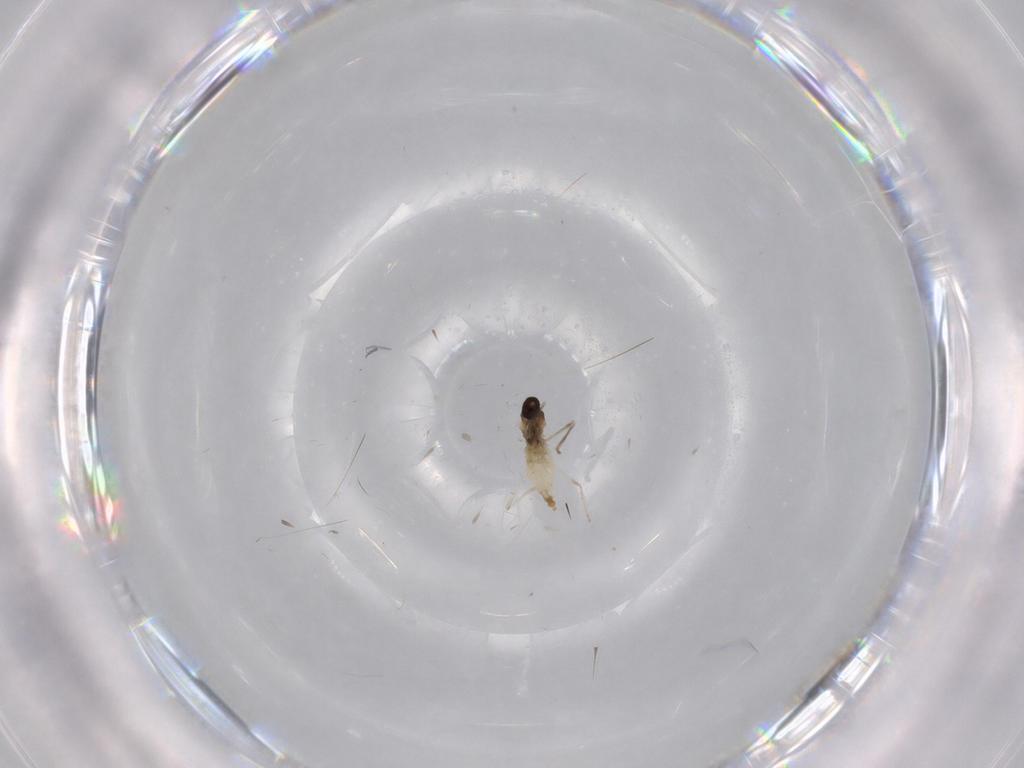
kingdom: Animalia
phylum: Arthropoda
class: Insecta
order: Diptera
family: Cecidomyiidae
